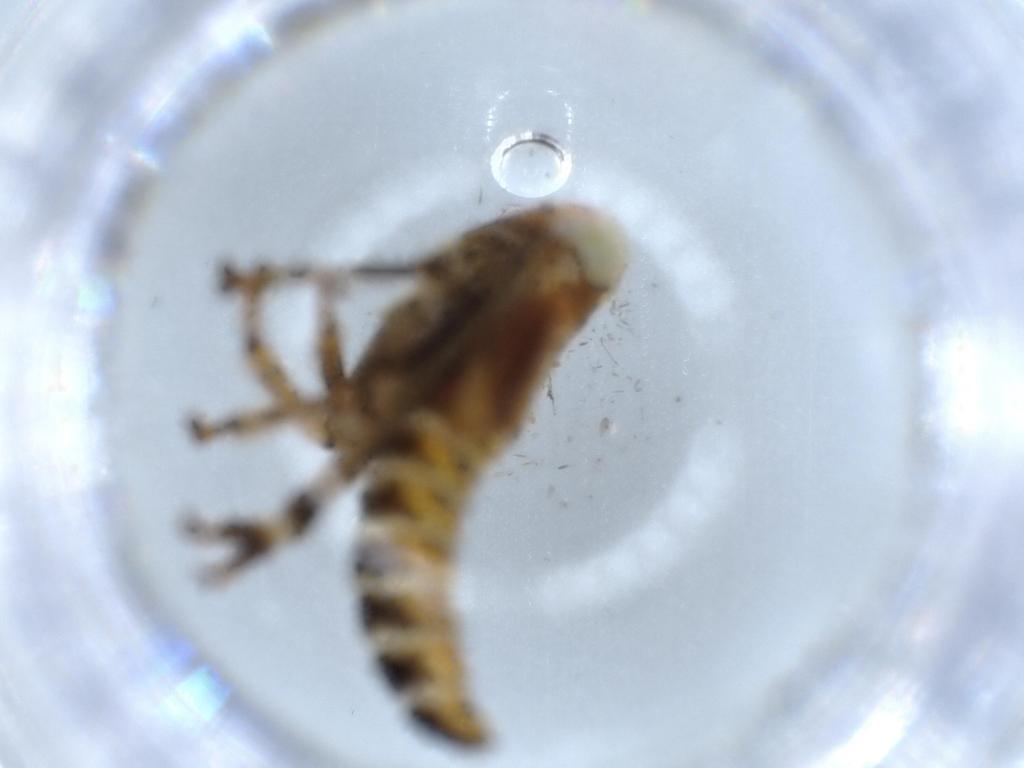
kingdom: Animalia
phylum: Arthropoda
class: Insecta
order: Hemiptera
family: Cicadellidae
